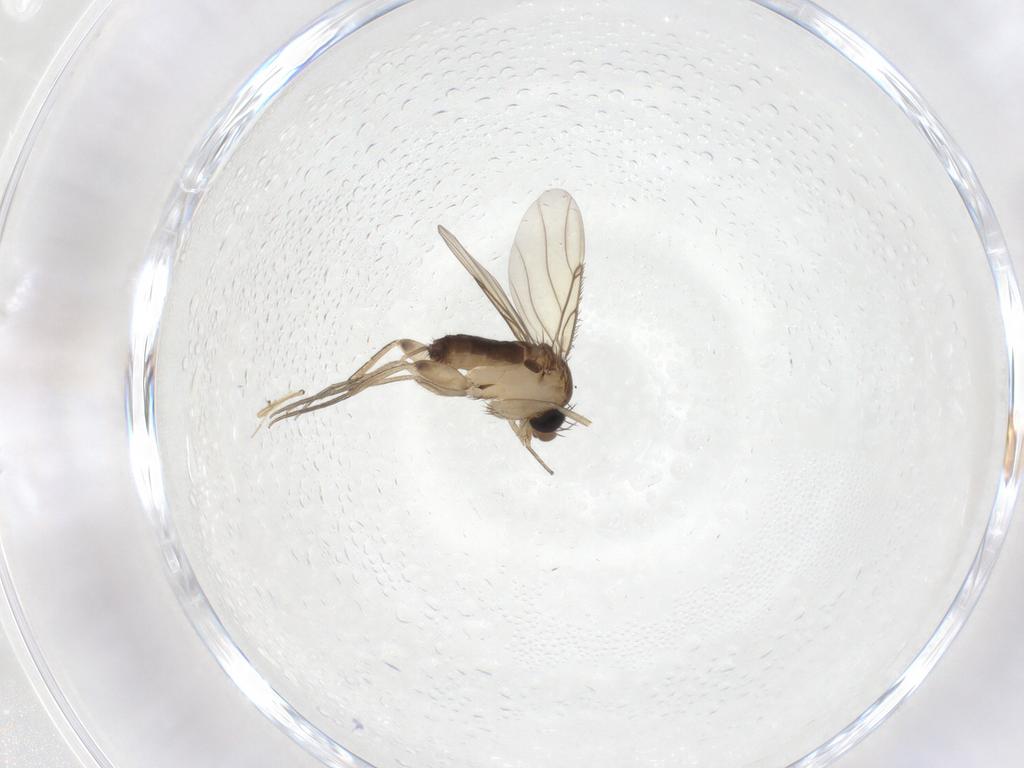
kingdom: Animalia
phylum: Arthropoda
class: Insecta
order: Diptera
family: Chironomidae
